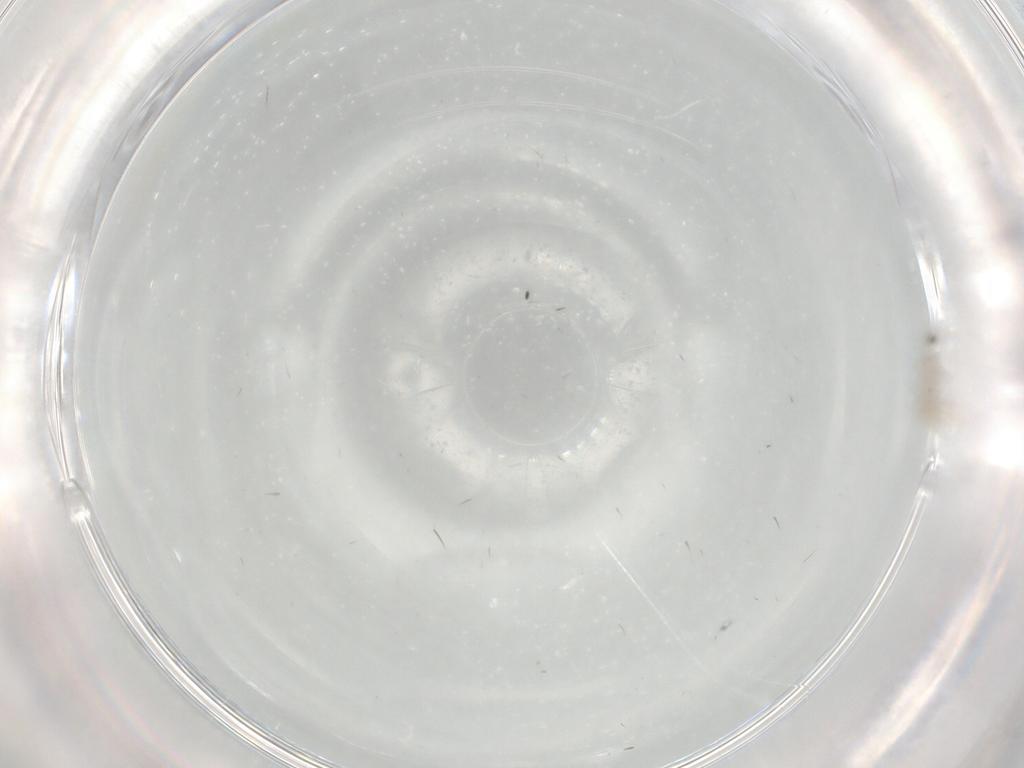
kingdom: Animalia
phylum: Arthropoda
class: Insecta
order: Diptera
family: Cecidomyiidae
